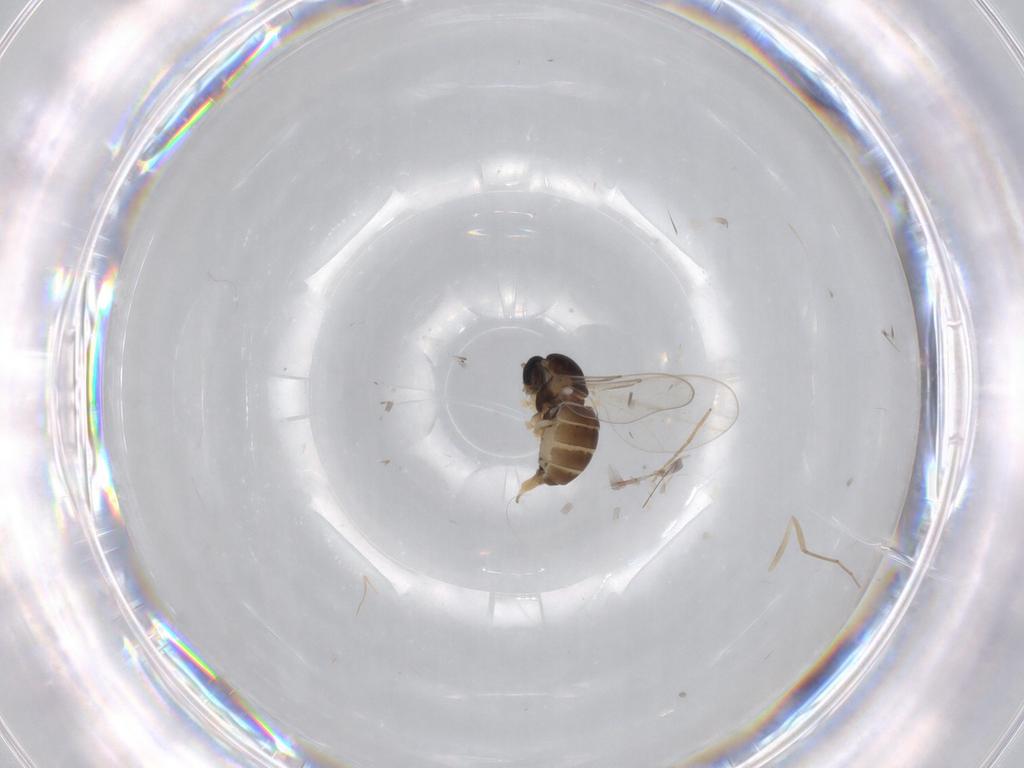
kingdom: Animalia
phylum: Arthropoda
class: Insecta
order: Diptera
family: Cecidomyiidae
